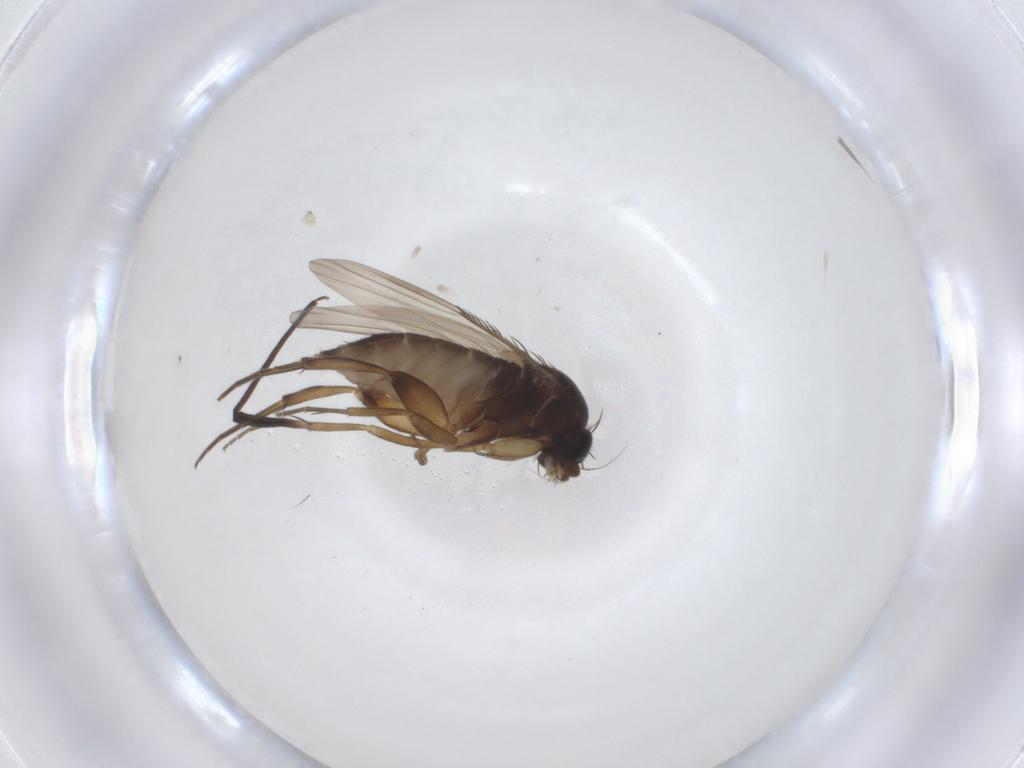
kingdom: Animalia
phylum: Arthropoda
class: Insecta
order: Diptera
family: Phoridae
